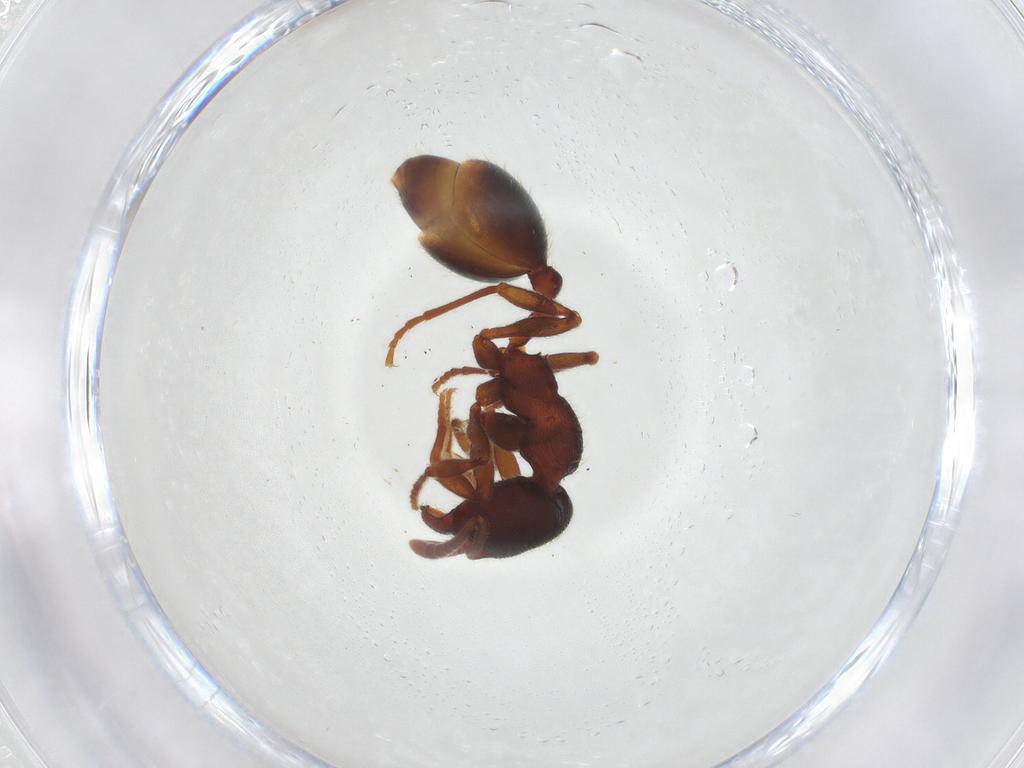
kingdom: Animalia
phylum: Arthropoda
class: Insecta
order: Hymenoptera
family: Formicidae
